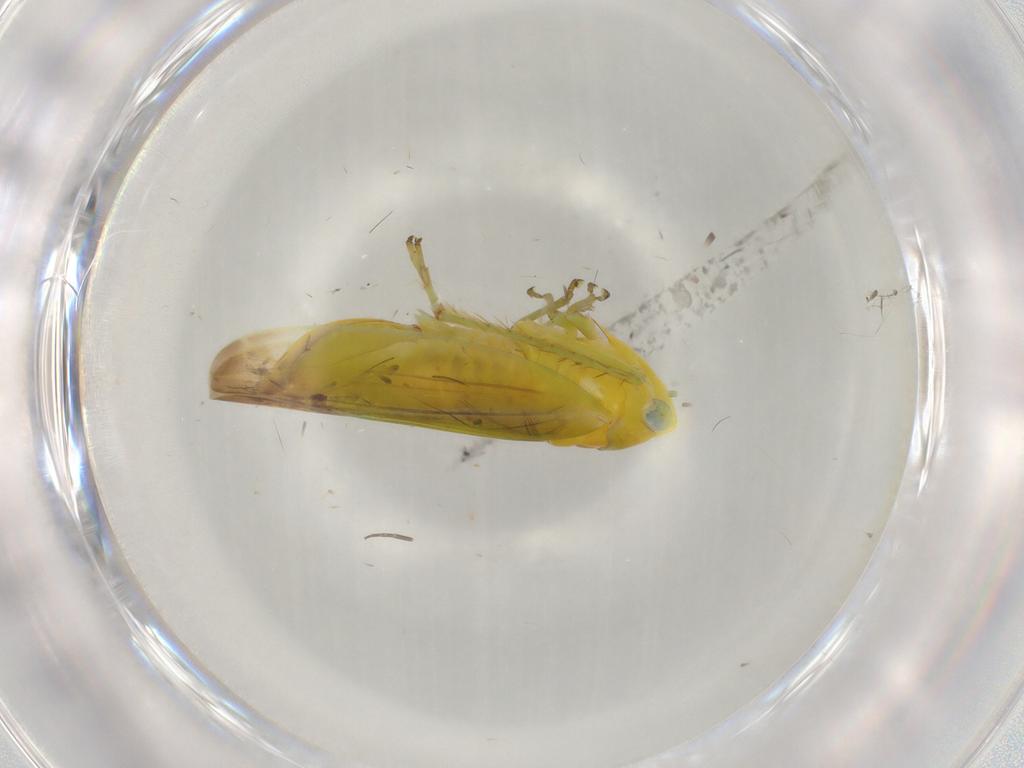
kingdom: Animalia
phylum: Arthropoda
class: Insecta
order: Hemiptera
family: Cicadellidae
